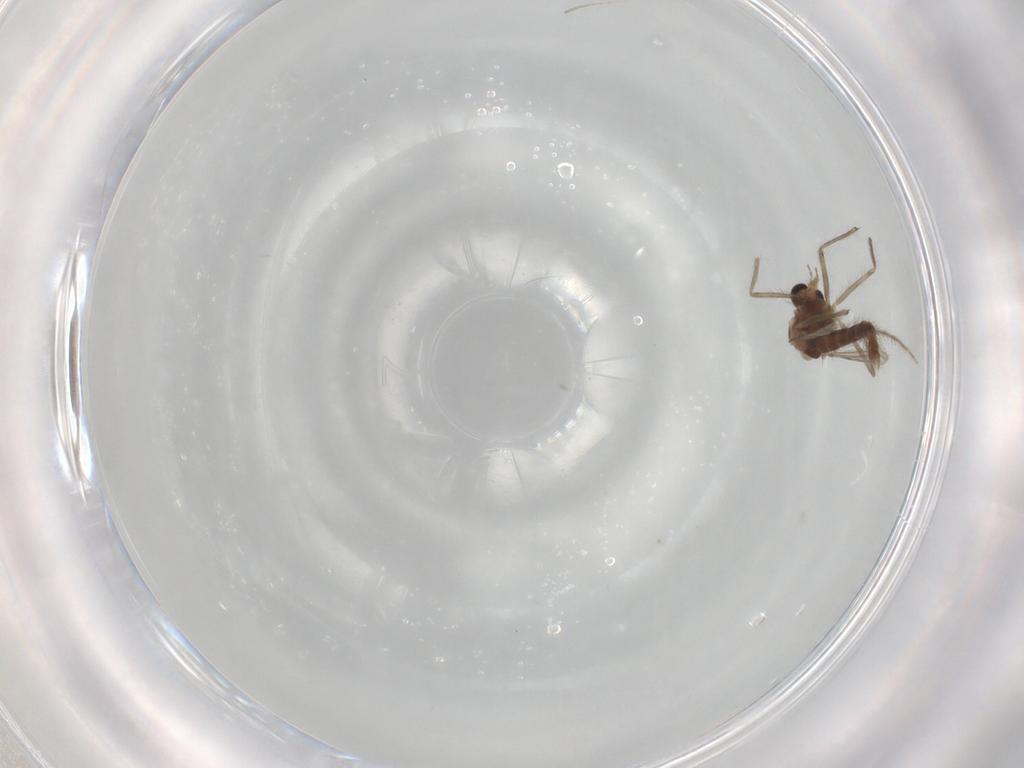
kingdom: Animalia
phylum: Arthropoda
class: Insecta
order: Diptera
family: Chironomidae
